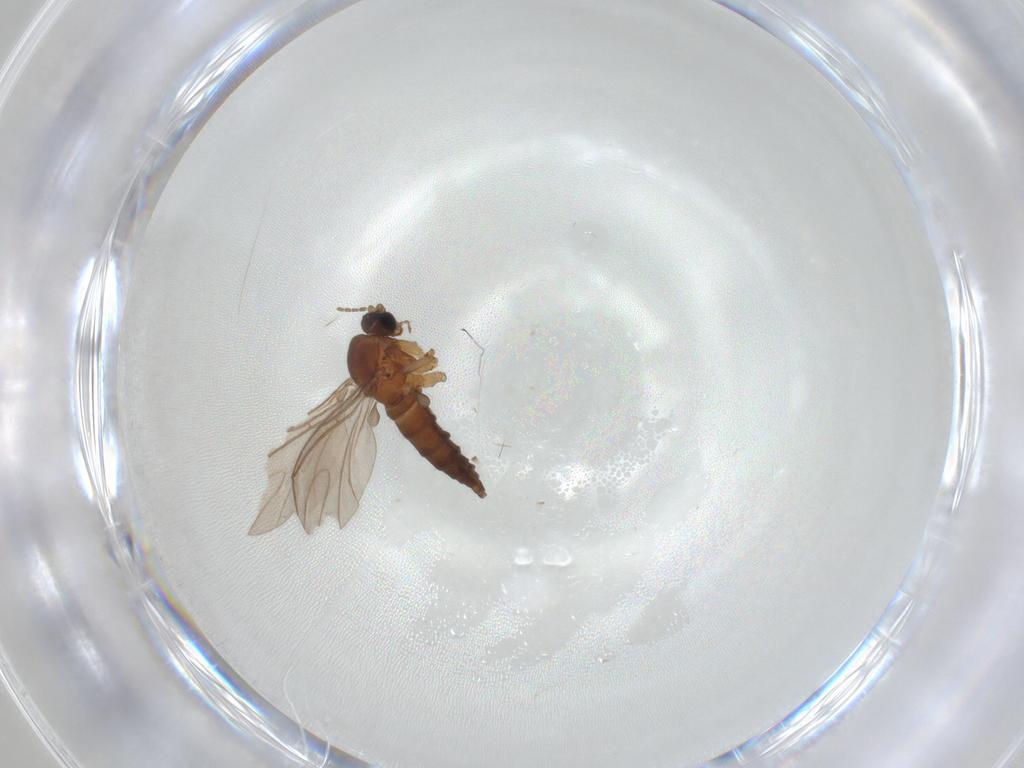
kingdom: Animalia
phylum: Arthropoda
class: Insecta
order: Diptera
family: Sciaridae
